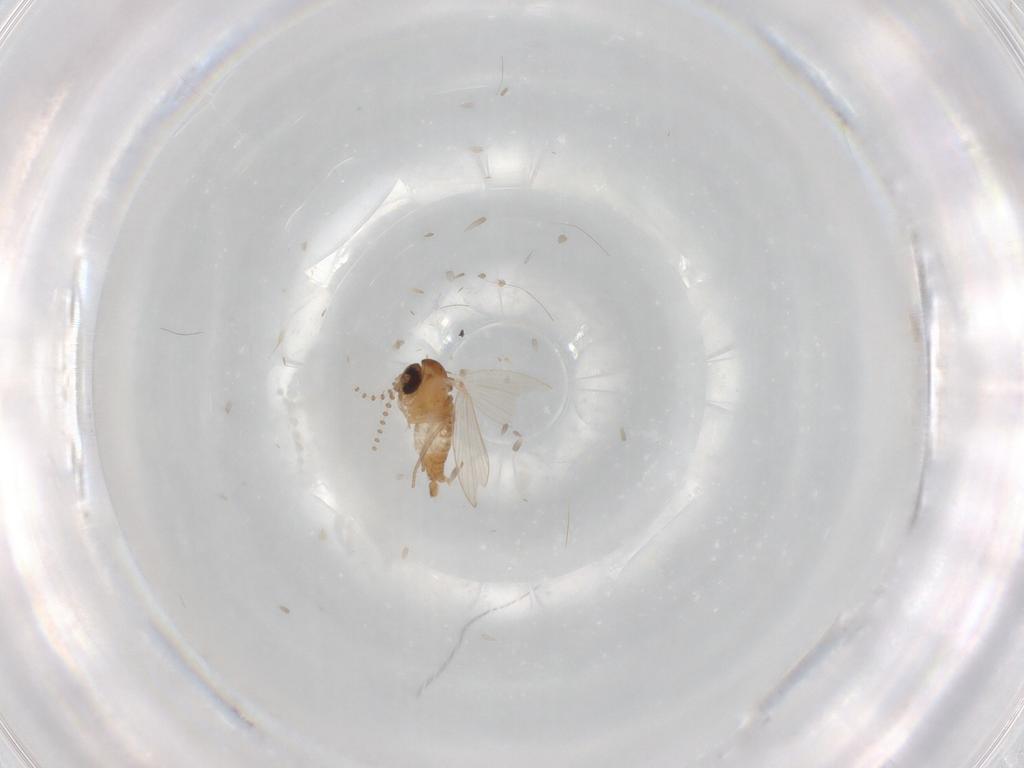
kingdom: Animalia
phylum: Arthropoda
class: Insecta
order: Diptera
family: Psychodidae
